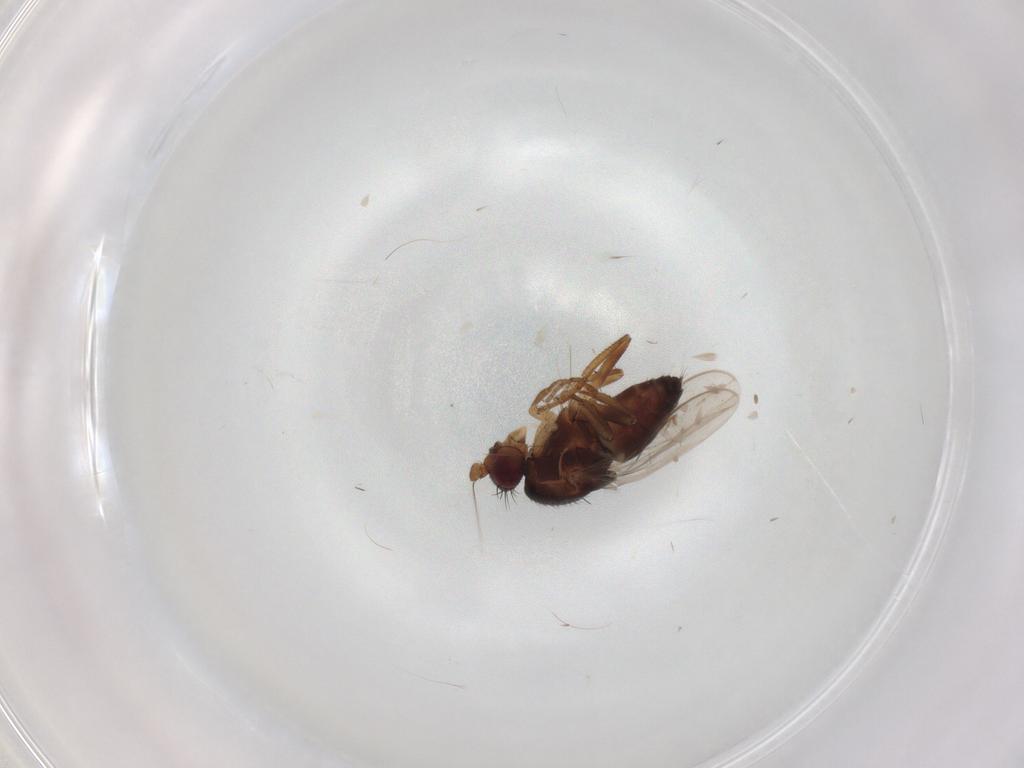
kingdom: Animalia
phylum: Arthropoda
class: Insecta
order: Diptera
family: Sphaeroceridae
